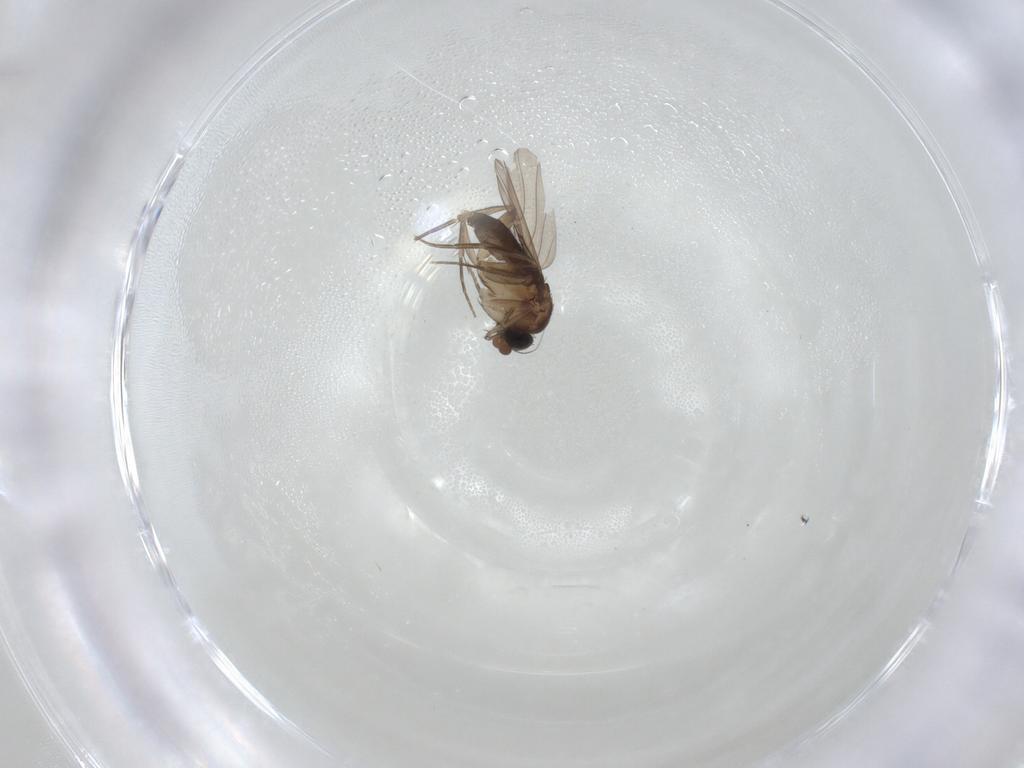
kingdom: Animalia
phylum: Arthropoda
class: Insecta
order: Diptera
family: Phoridae
